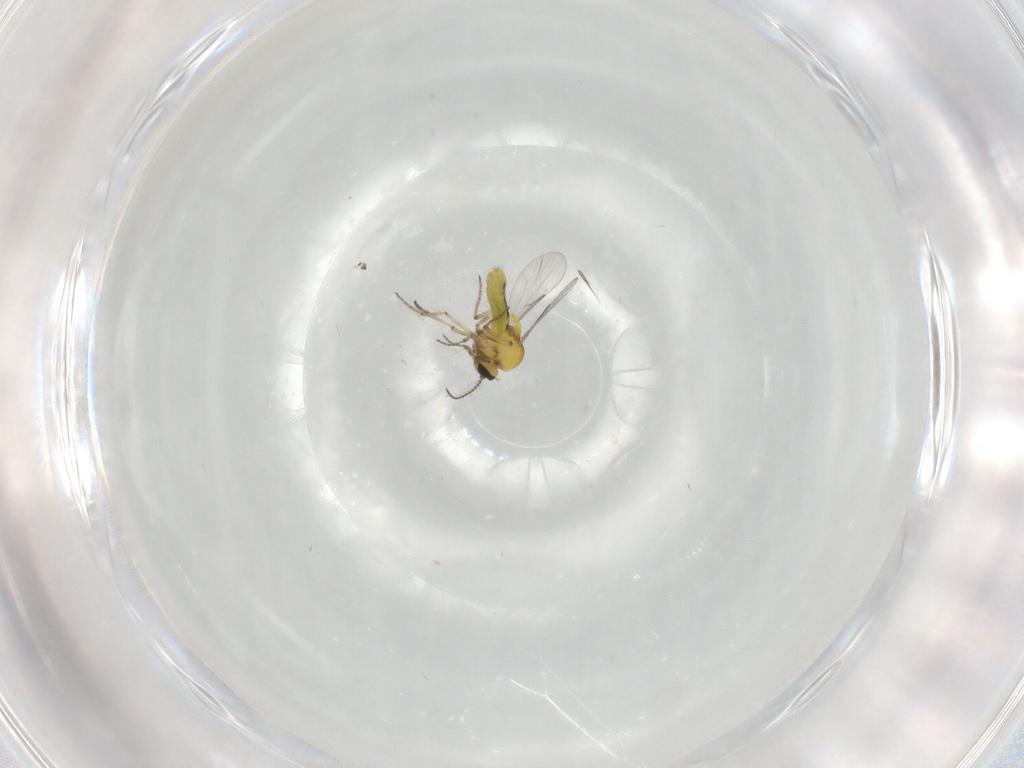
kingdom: Animalia
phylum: Arthropoda
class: Insecta
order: Diptera
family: Ceratopogonidae
